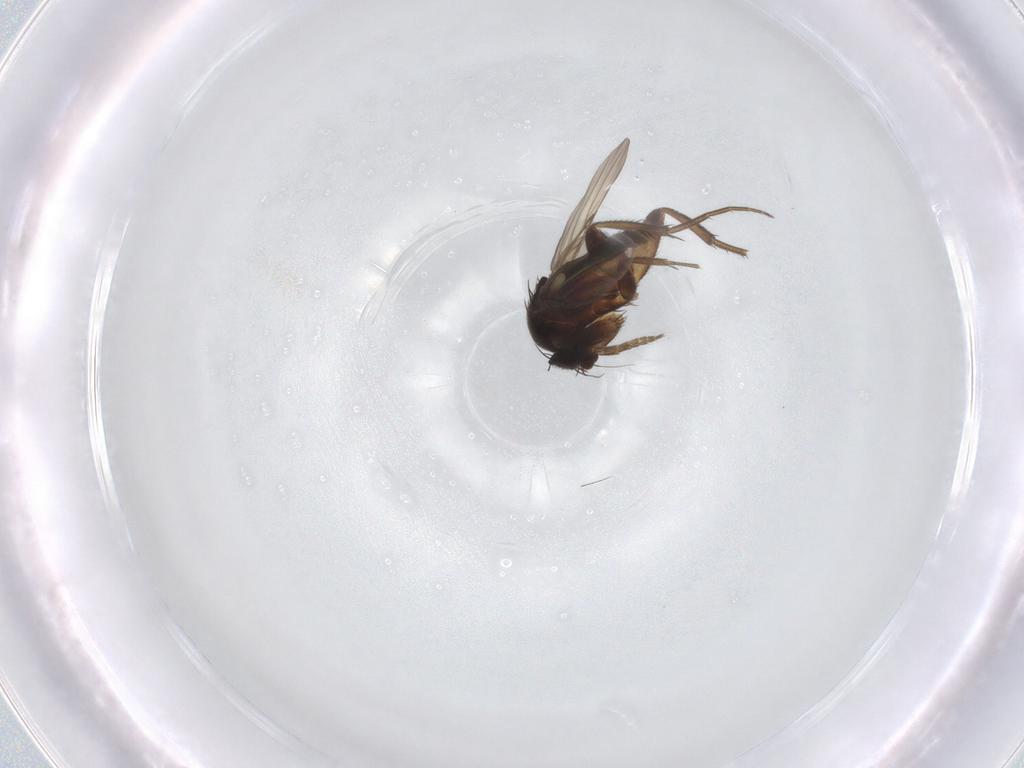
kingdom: Animalia
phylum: Arthropoda
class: Insecta
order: Diptera
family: Phoridae
